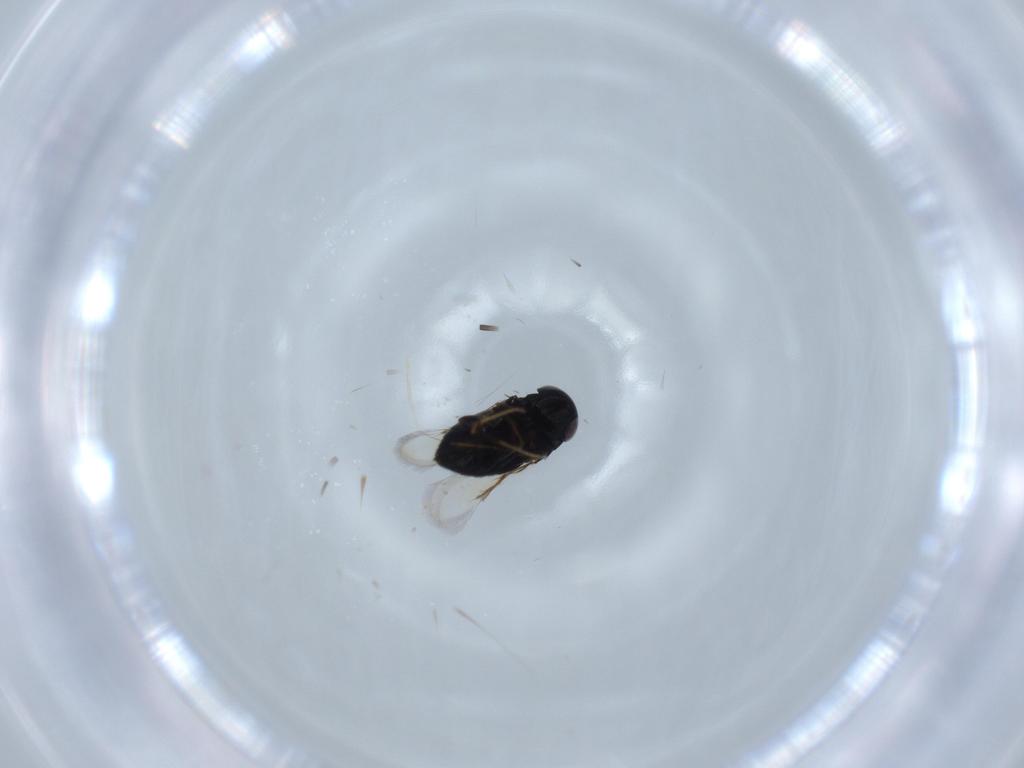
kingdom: Animalia
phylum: Arthropoda
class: Insecta
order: Hymenoptera
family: Signiphoridae
